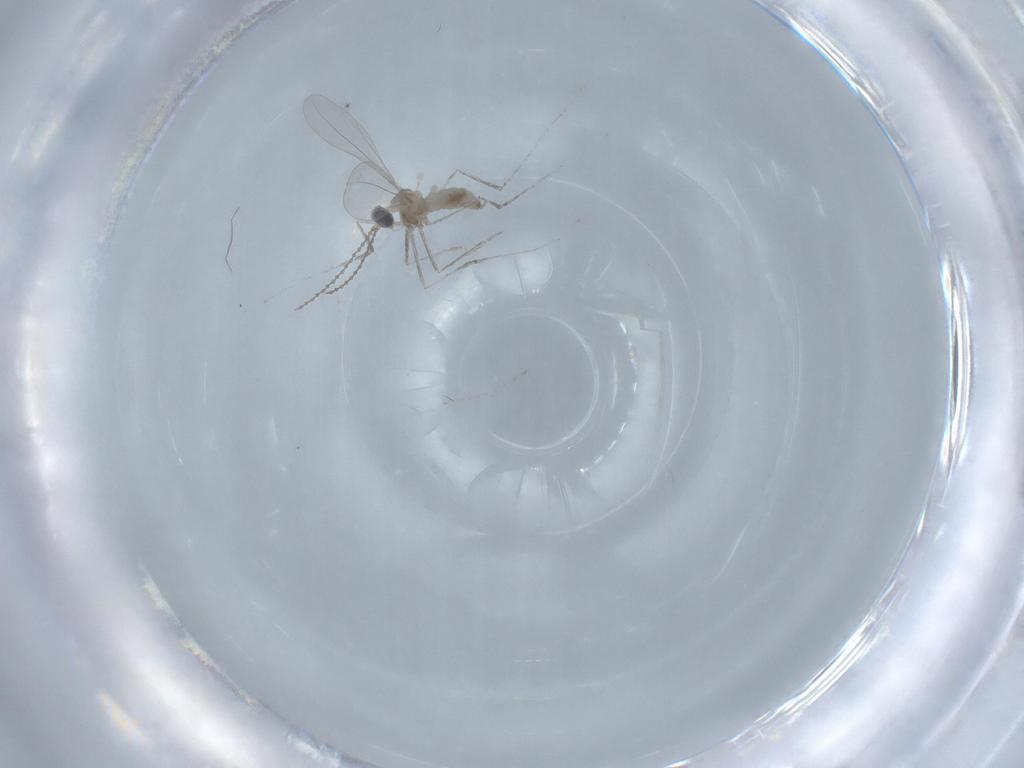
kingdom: Animalia
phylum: Arthropoda
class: Insecta
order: Diptera
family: Cecidomyiidae
